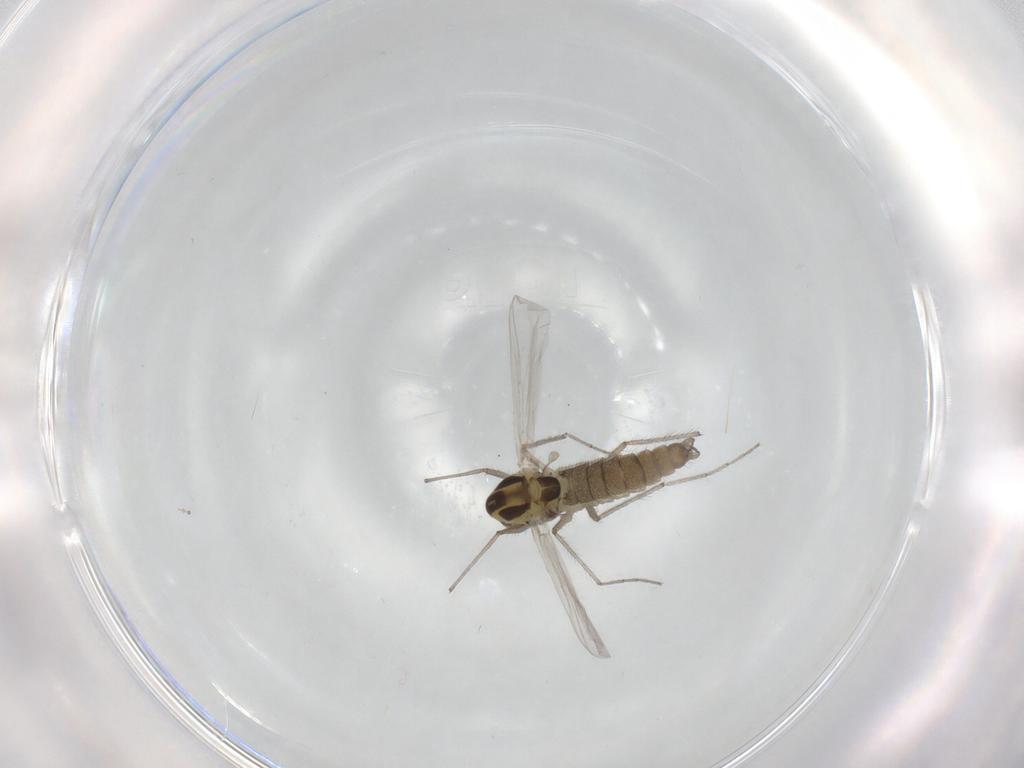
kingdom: Animalia
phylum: Arthropoda
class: Insecta
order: Diptera
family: Chironomidae
